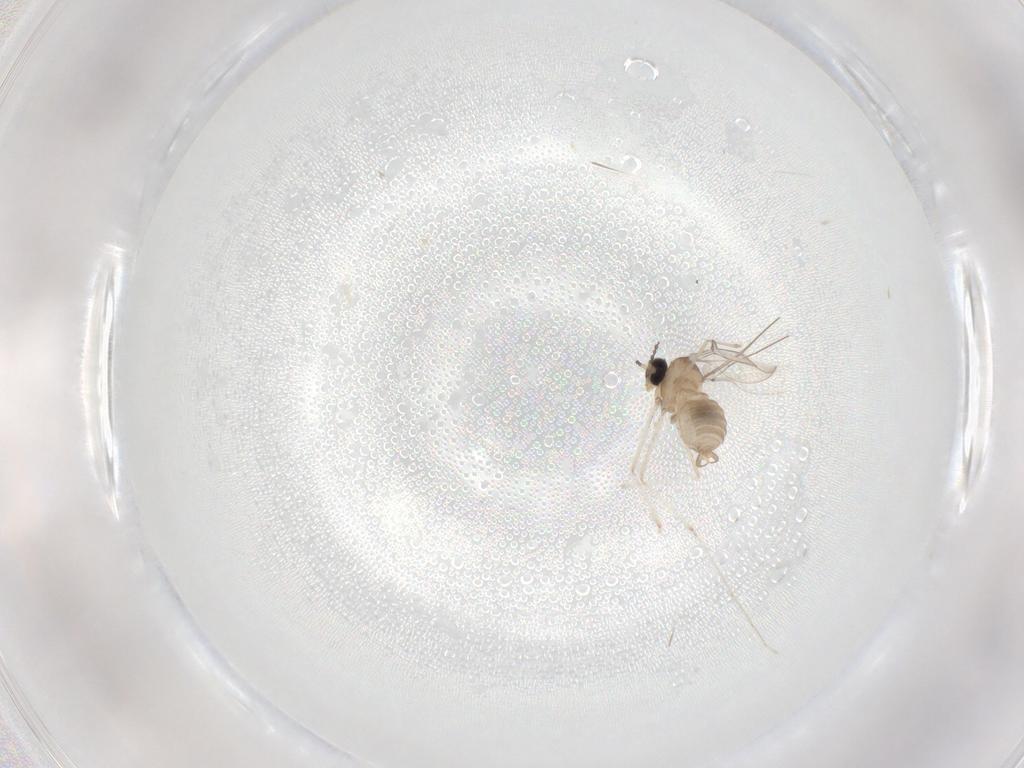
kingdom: Animalia
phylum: Arthropoda
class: Insecta
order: Diptera
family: Cecidomyiidae
